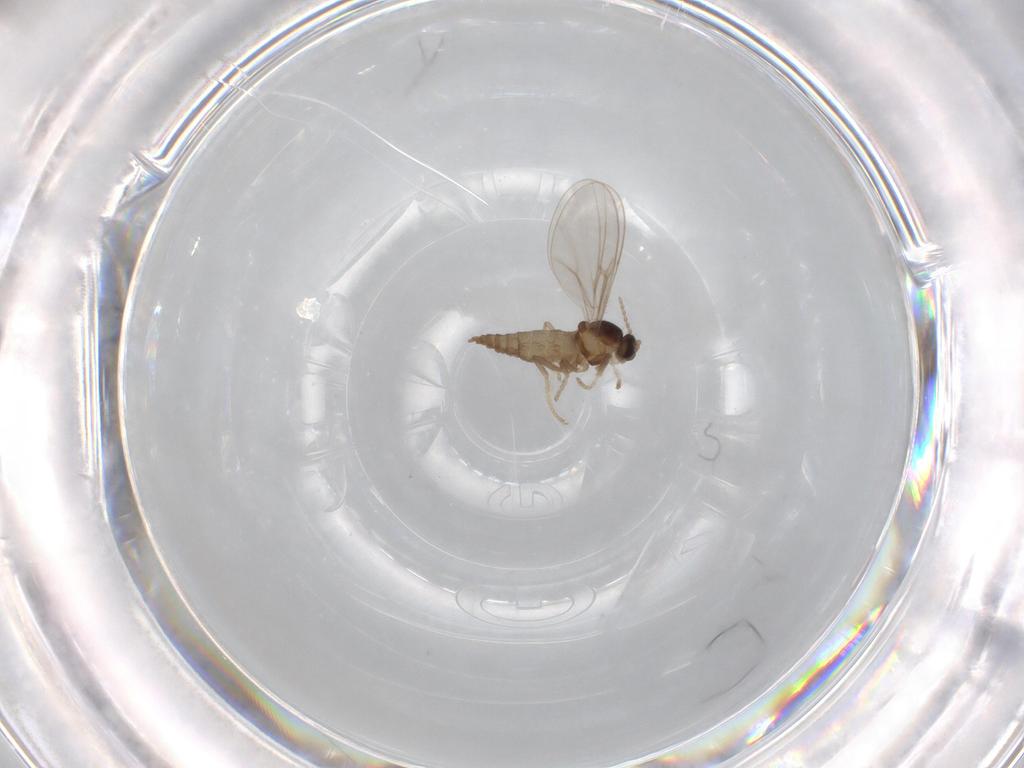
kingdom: Animalia
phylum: Arthropoda
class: Insecta
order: Diptera
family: Cecidomyiidae
